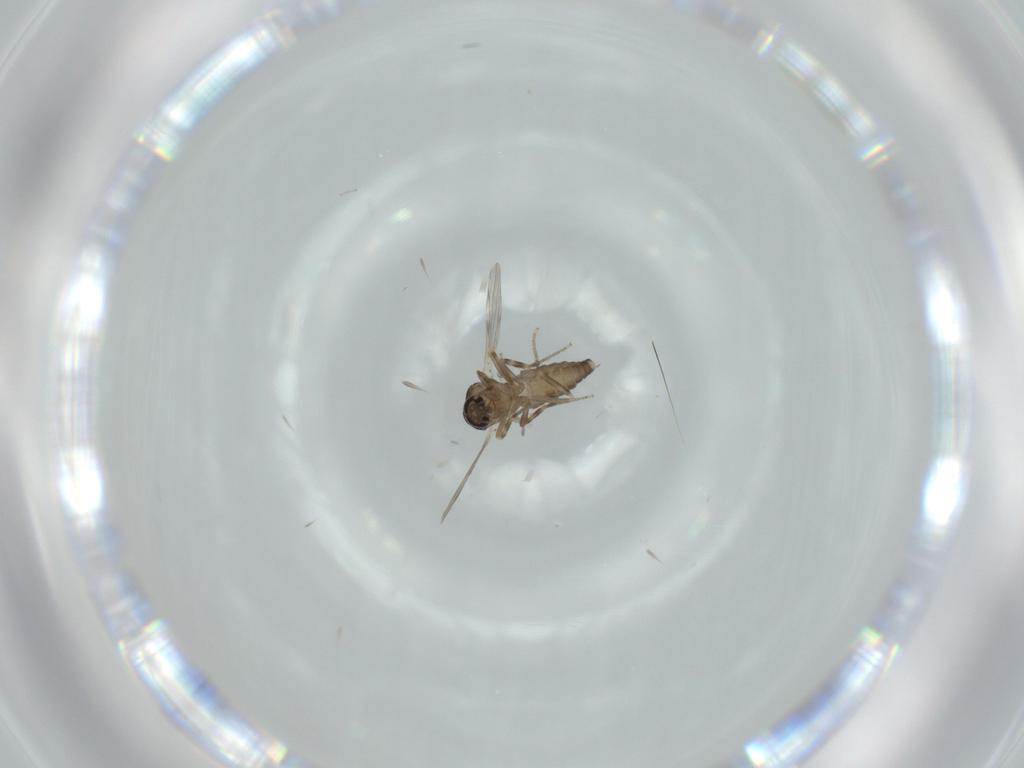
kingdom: Animalia
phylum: Arthropoda
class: Insecta
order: Diptera
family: Ceratopogonidae
